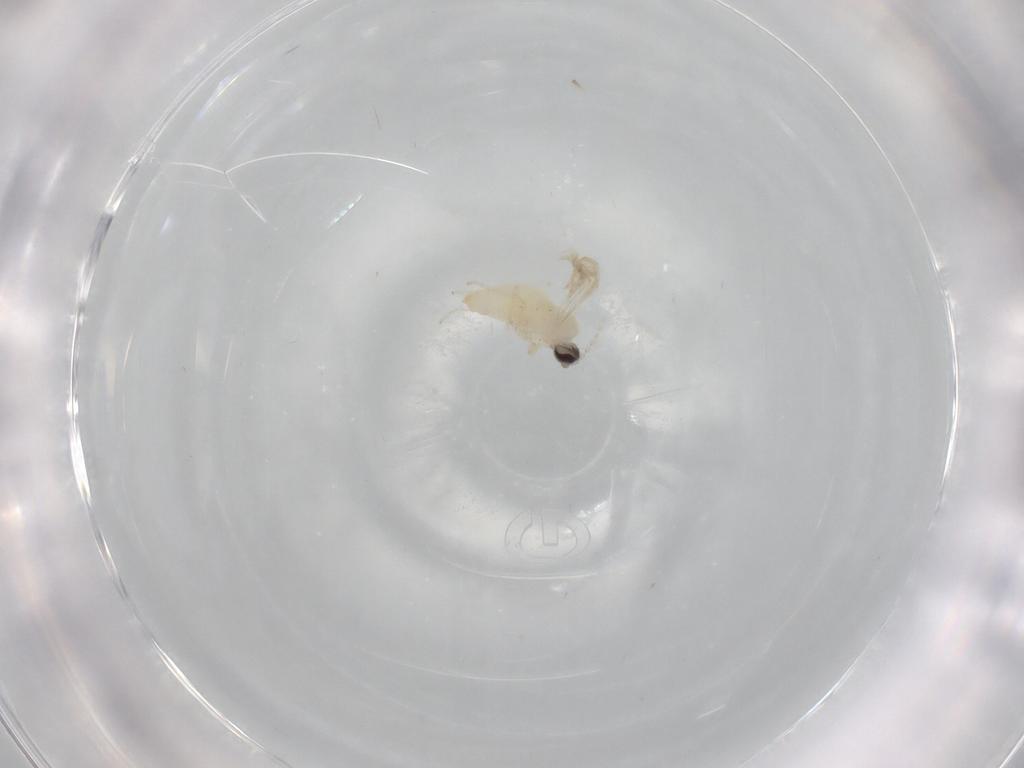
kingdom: Animalia
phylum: Arthropoda
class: Insecta
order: Diptera
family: Cecidomyiidae
